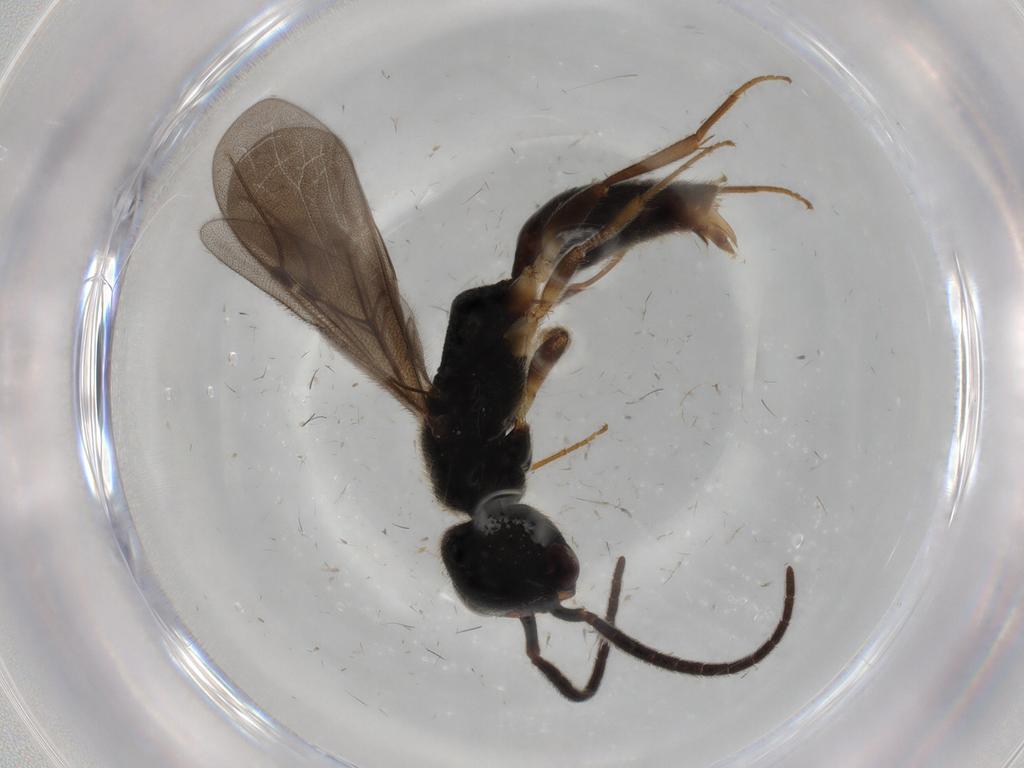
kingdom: Animalia
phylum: Arthropoda
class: Insecta
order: Hymenoptera
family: Bethylidae
